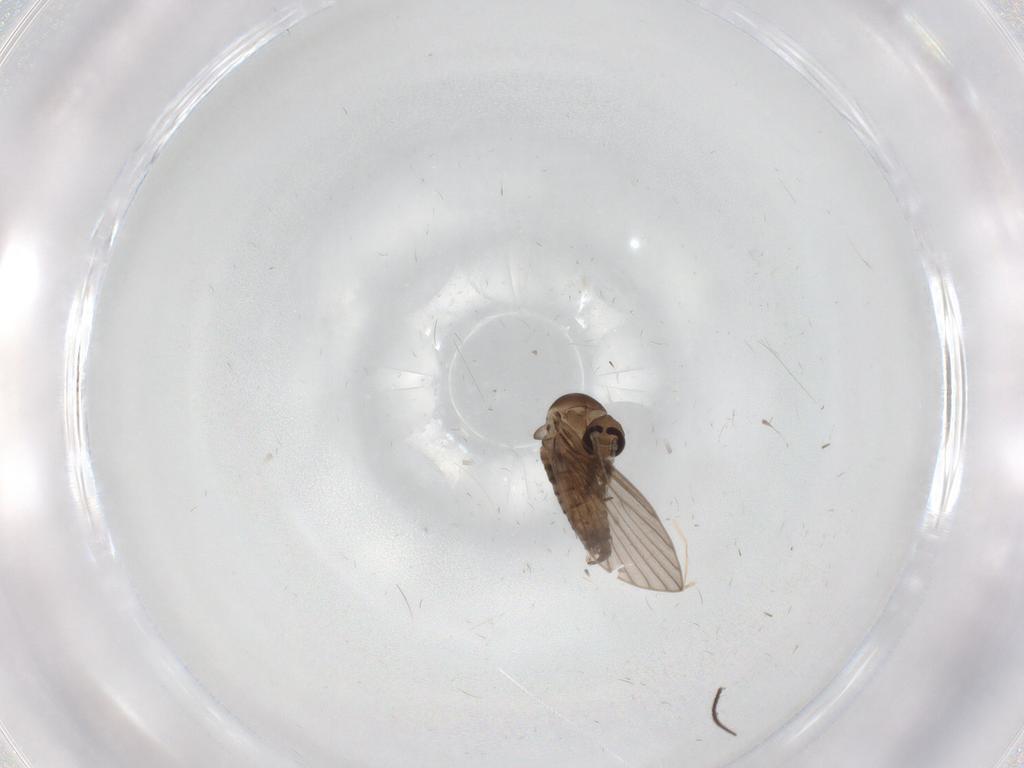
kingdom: Animalia
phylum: Arthropoda
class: Insecta
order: Diptera
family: Psychodidae
